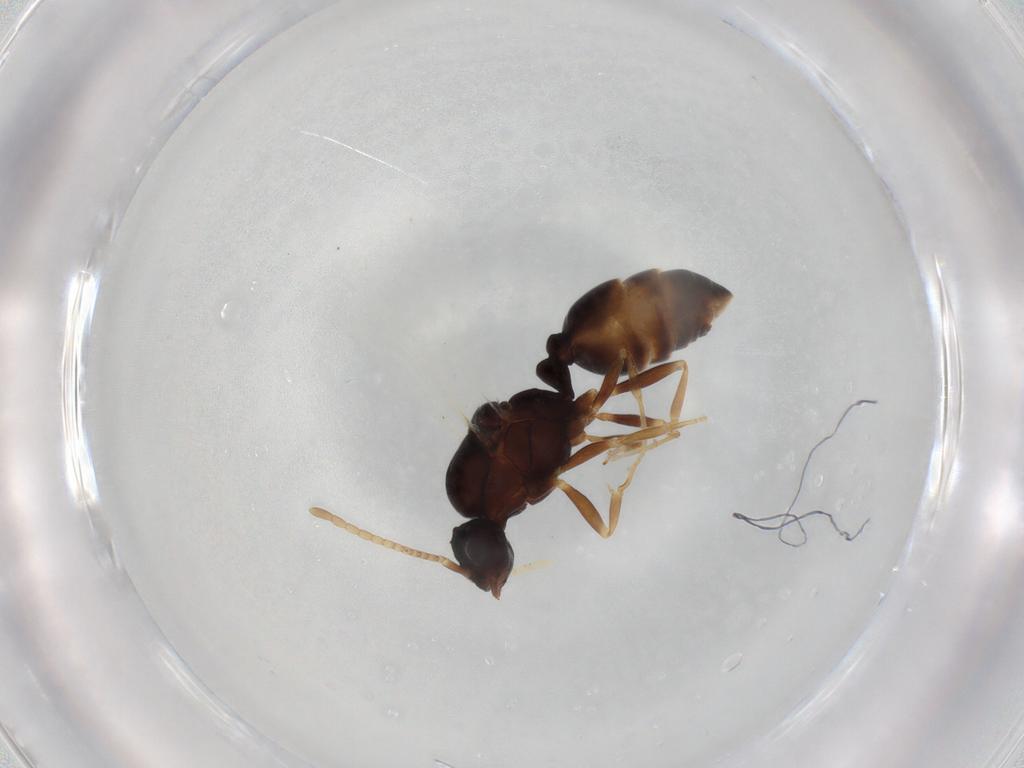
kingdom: Animalia
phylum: Arthropoda
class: Insecta
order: Hymenoptera
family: Formicidae
